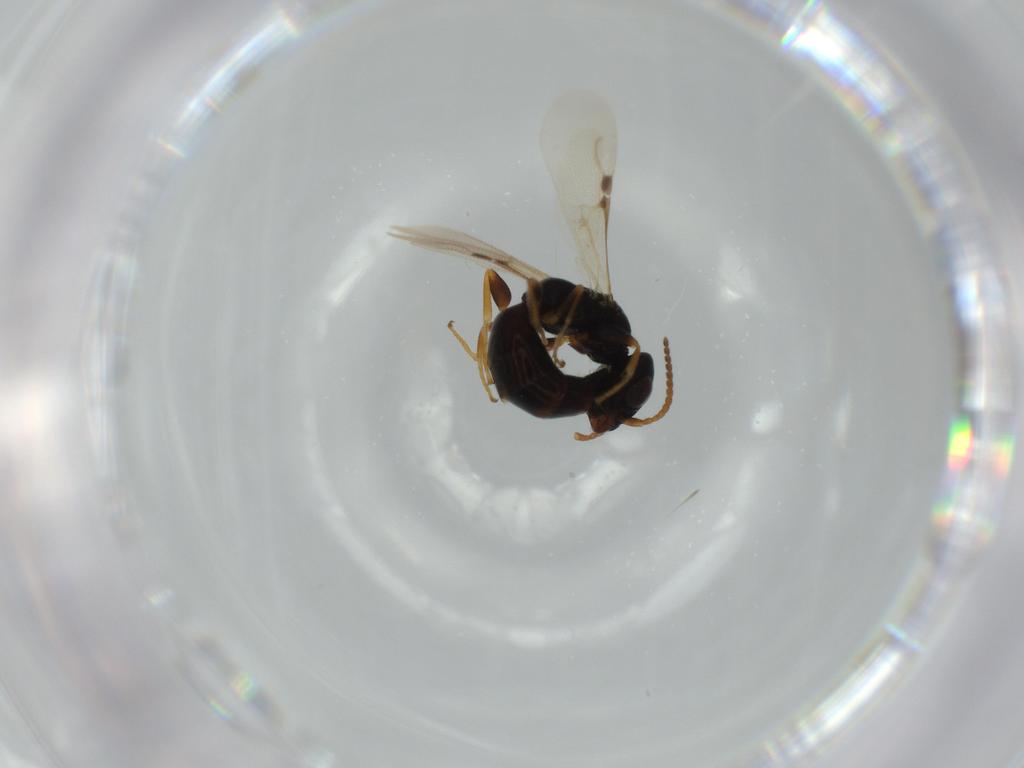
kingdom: Animalia
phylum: Arthropoda
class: Insecta
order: Hymenoptera
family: Bethylidae
